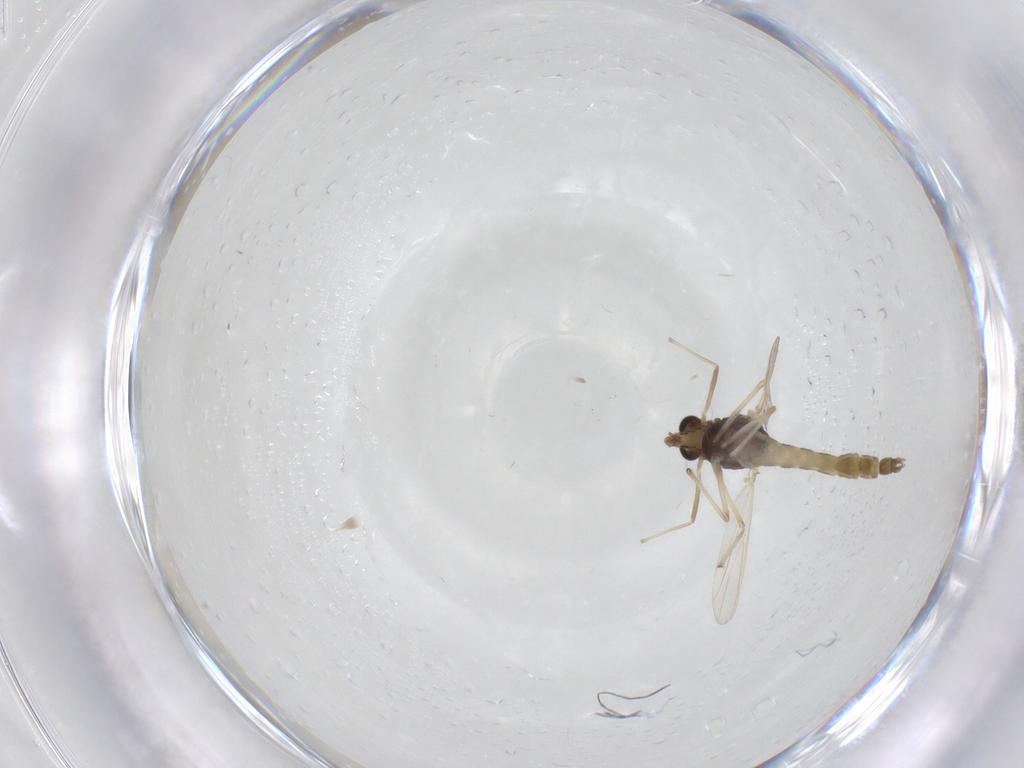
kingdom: Animalia
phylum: Arthropoda
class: Insecta
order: Diptera
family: Chironomidae
